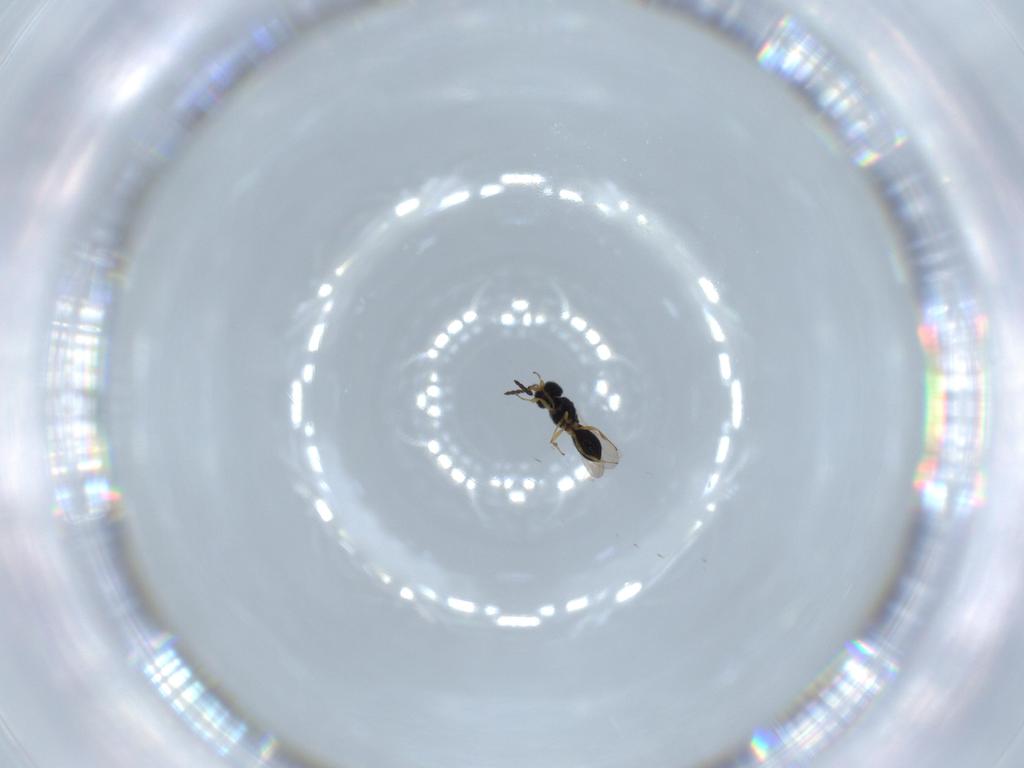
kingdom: Animalia
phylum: Arthropoda
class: Insecta
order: Hymenoptera
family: Scelionidae
